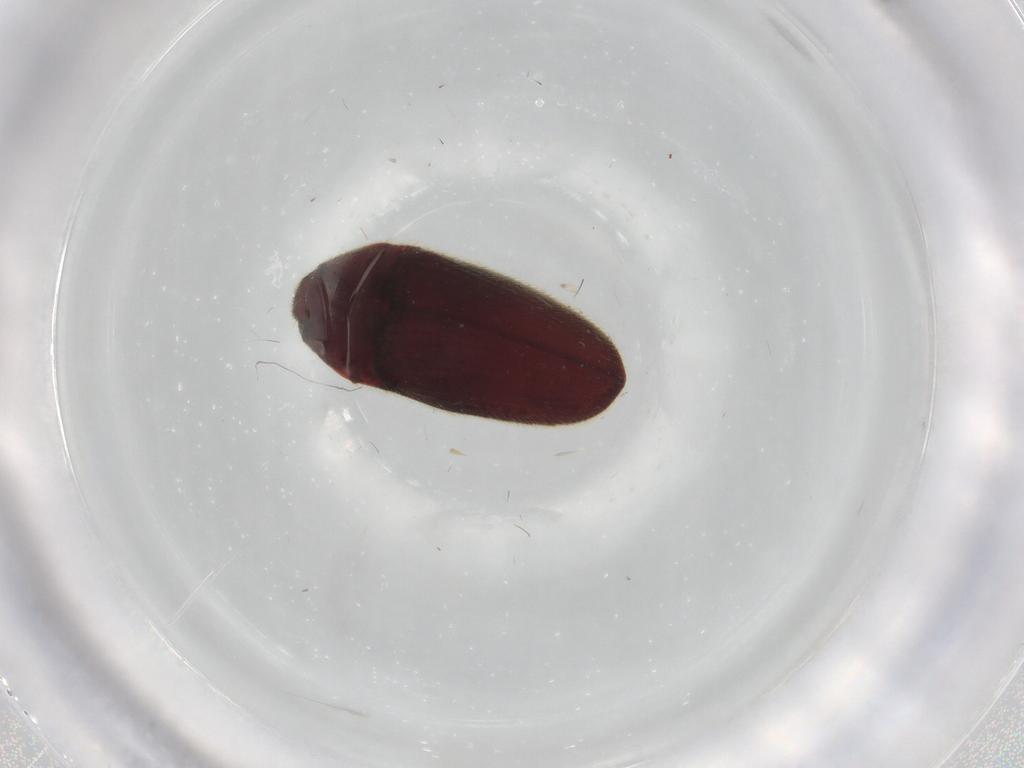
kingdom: Animalia
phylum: Arthropoda
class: Insecta
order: Coleoptera
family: Throscidae
